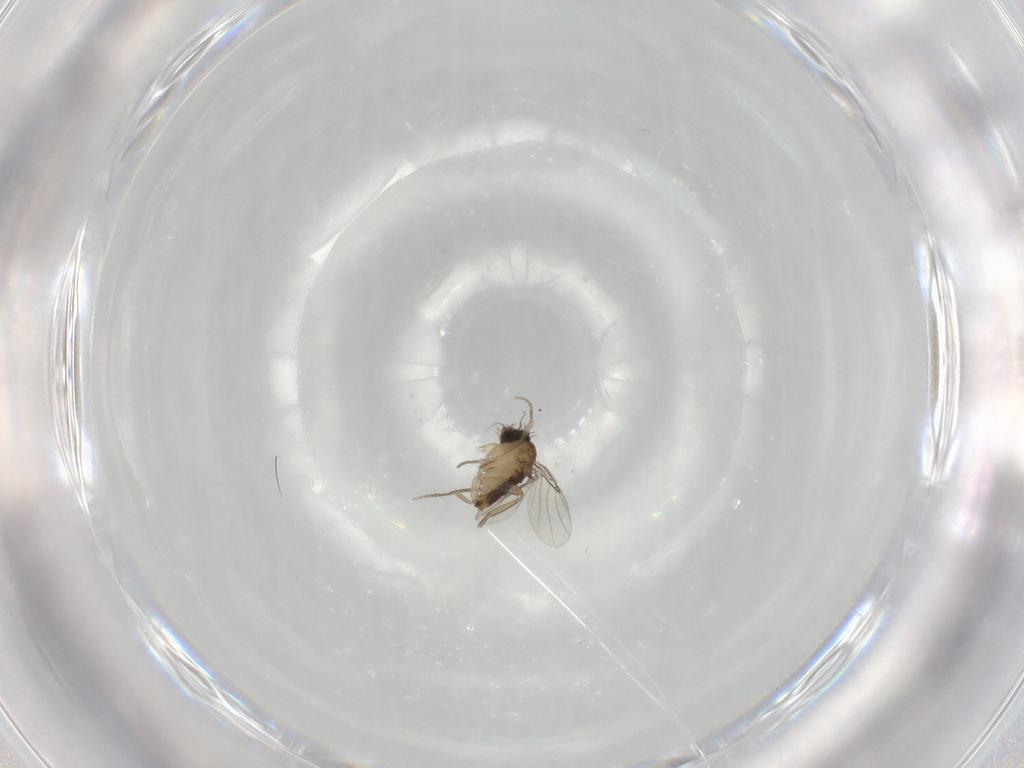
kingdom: Animalia
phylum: Arthropoda
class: Insecta
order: Diptera
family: Phoridae
